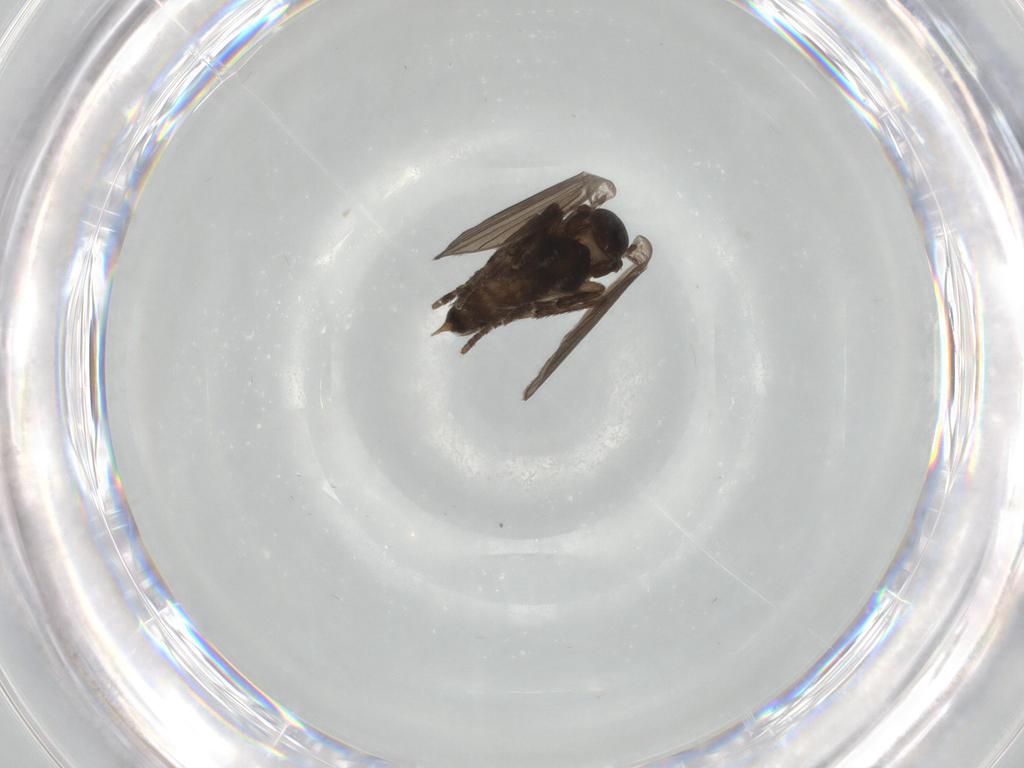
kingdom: Animalia
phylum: Arthropoda
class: Insecta
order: Diptera
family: Psychodidae
